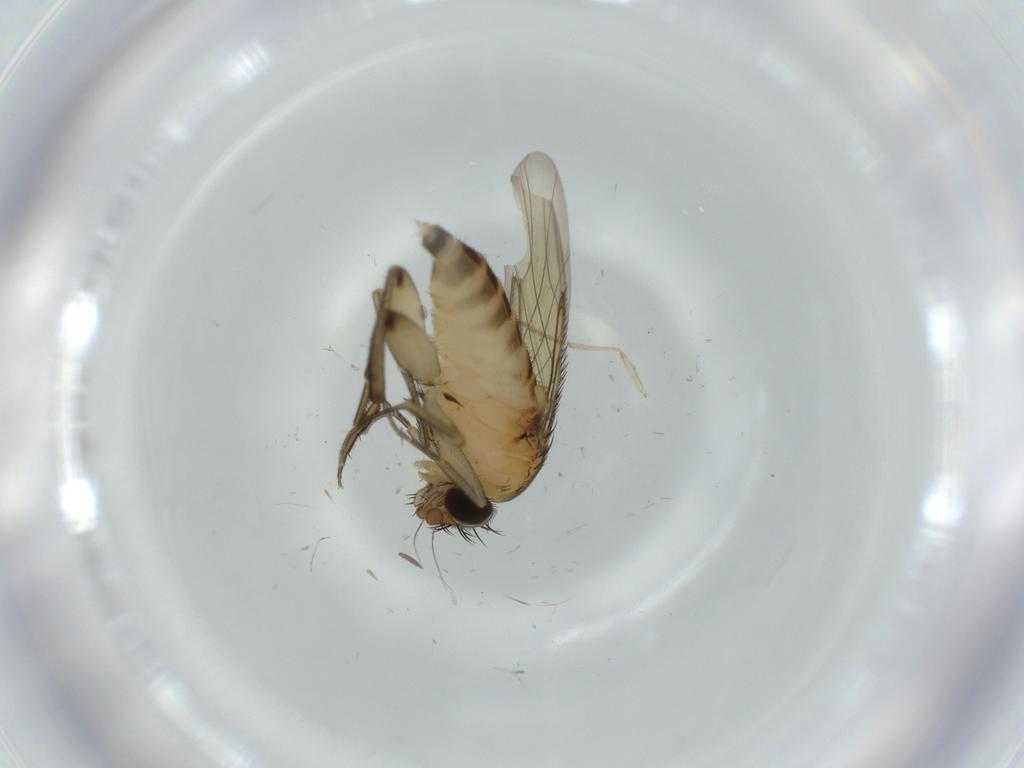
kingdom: Animalia
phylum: Arthropoda
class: Insecta
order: Diptera
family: Phoridae
